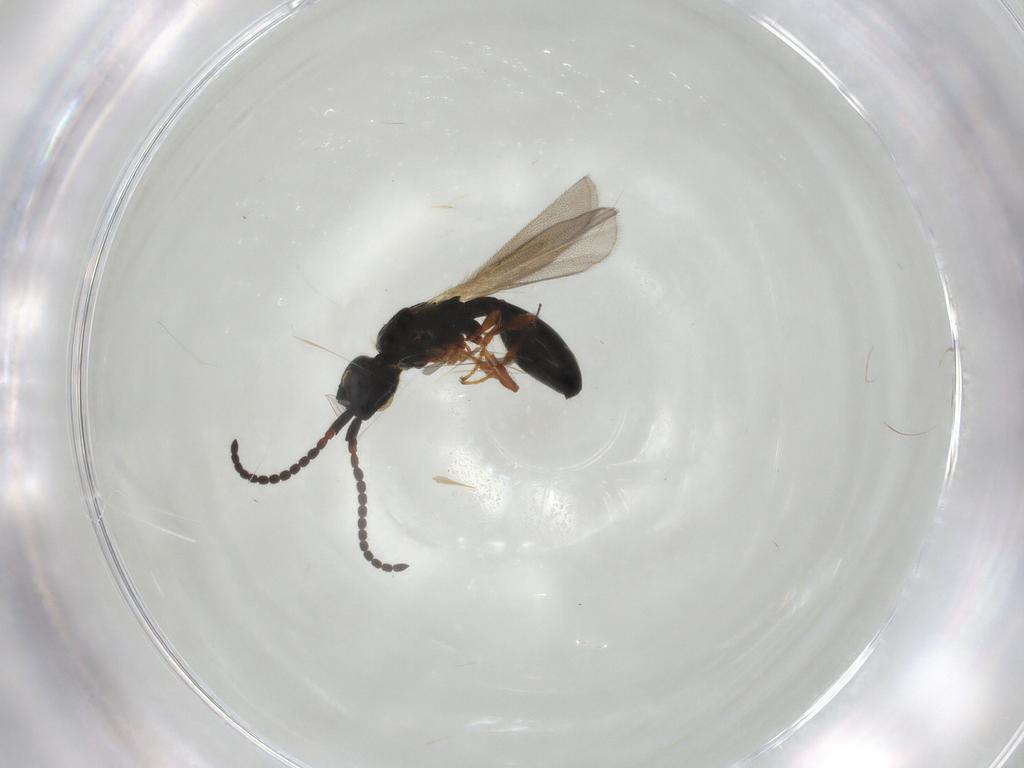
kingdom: Animalia
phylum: Arthropoda
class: Insecta
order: Hymenoptera
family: Diapriidae
